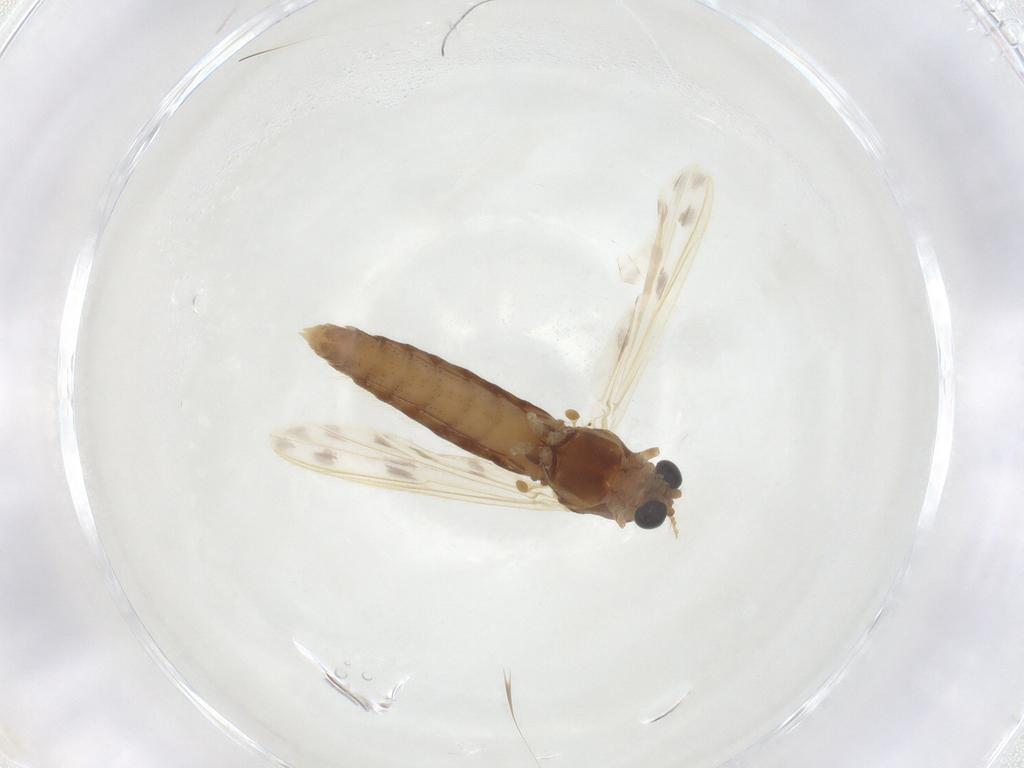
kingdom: Animalia
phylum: Arthropoda
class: Insecta
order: Diptera
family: Chironomidae
